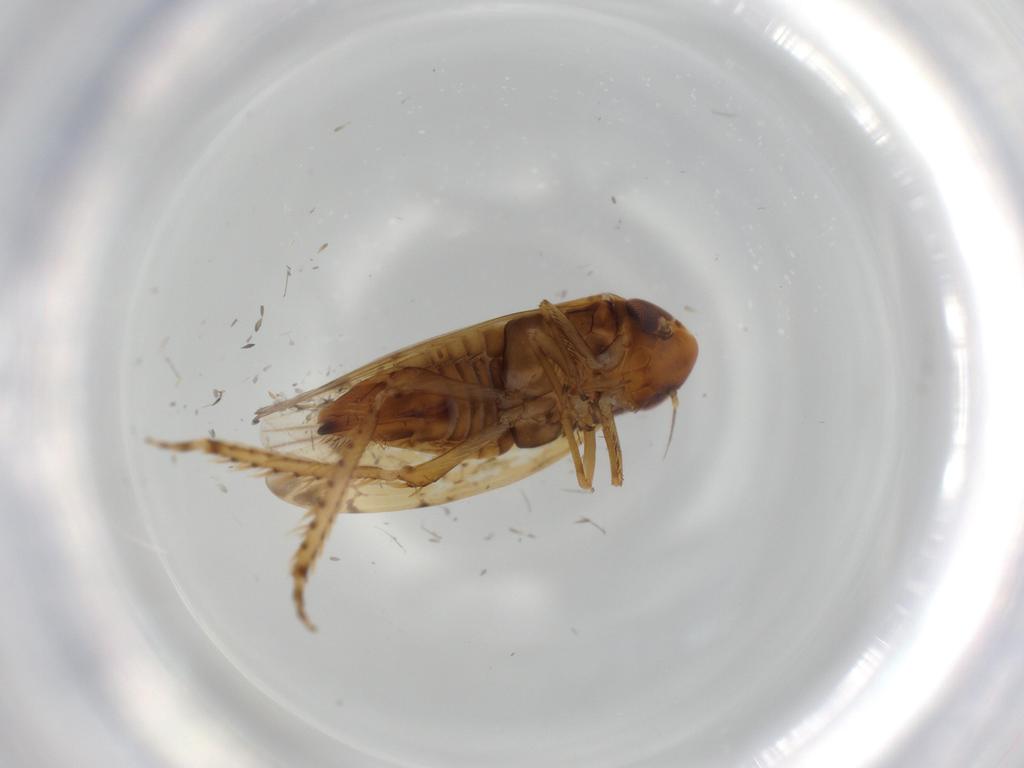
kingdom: Animalia
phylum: Arthropoda
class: Insecta
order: Hemiptera
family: Cicadellidae
